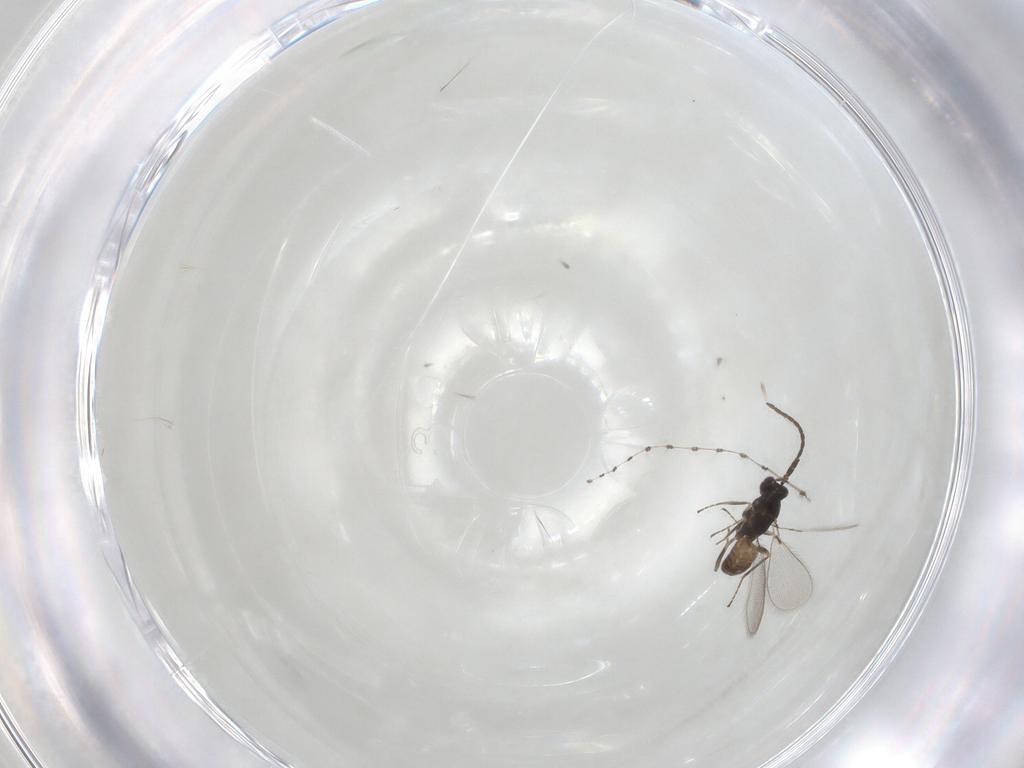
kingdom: Animalia
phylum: Arthropoda
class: Insecta
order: Hymenoptera
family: Trichogrammatidae
